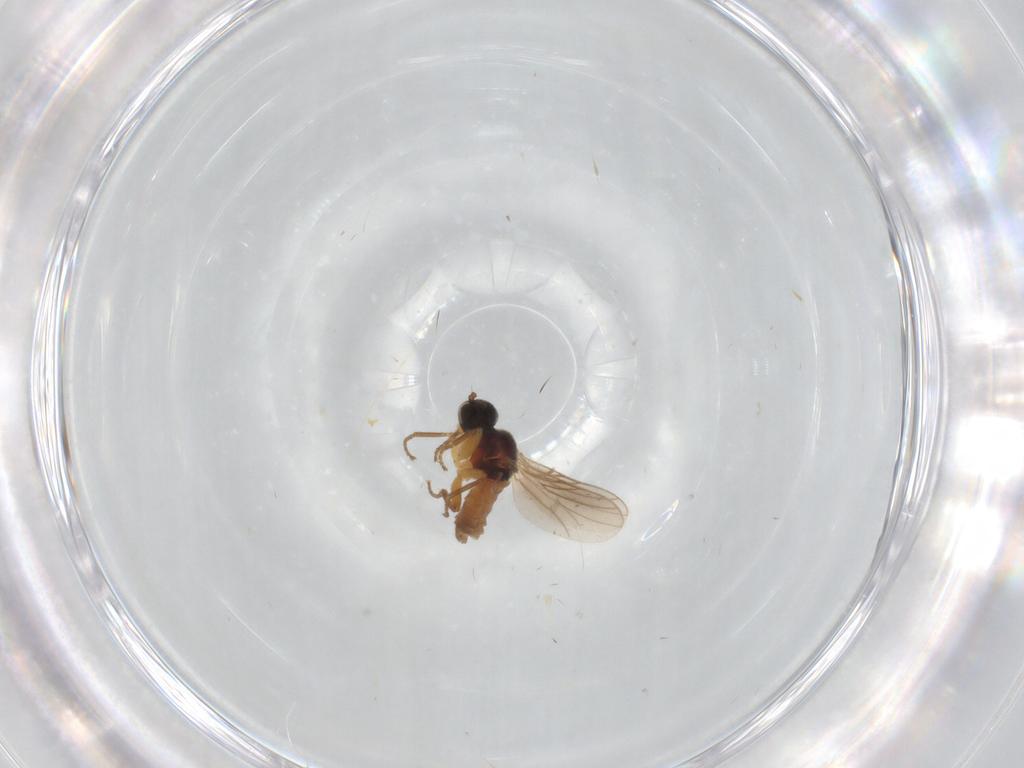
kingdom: Animalia
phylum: Arthropoda
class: Insecta
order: Diptera
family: Hybotidae
